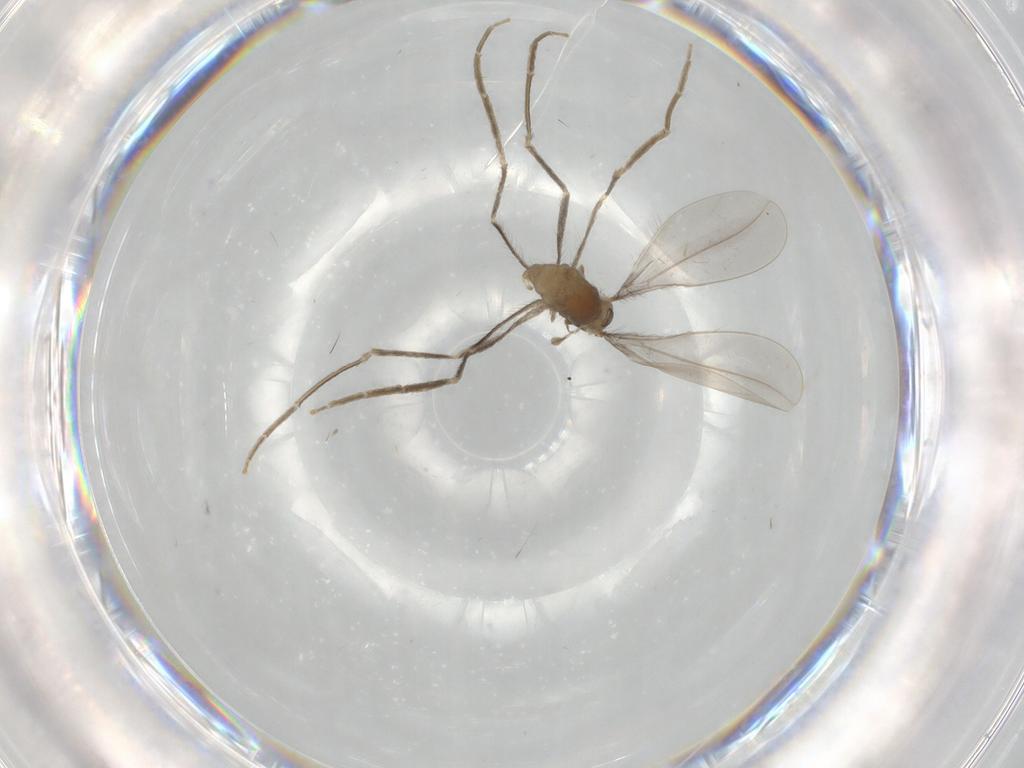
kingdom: Animalia
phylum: Arthropoda
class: Insecta
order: Diptera
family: Cecidomyiidae
